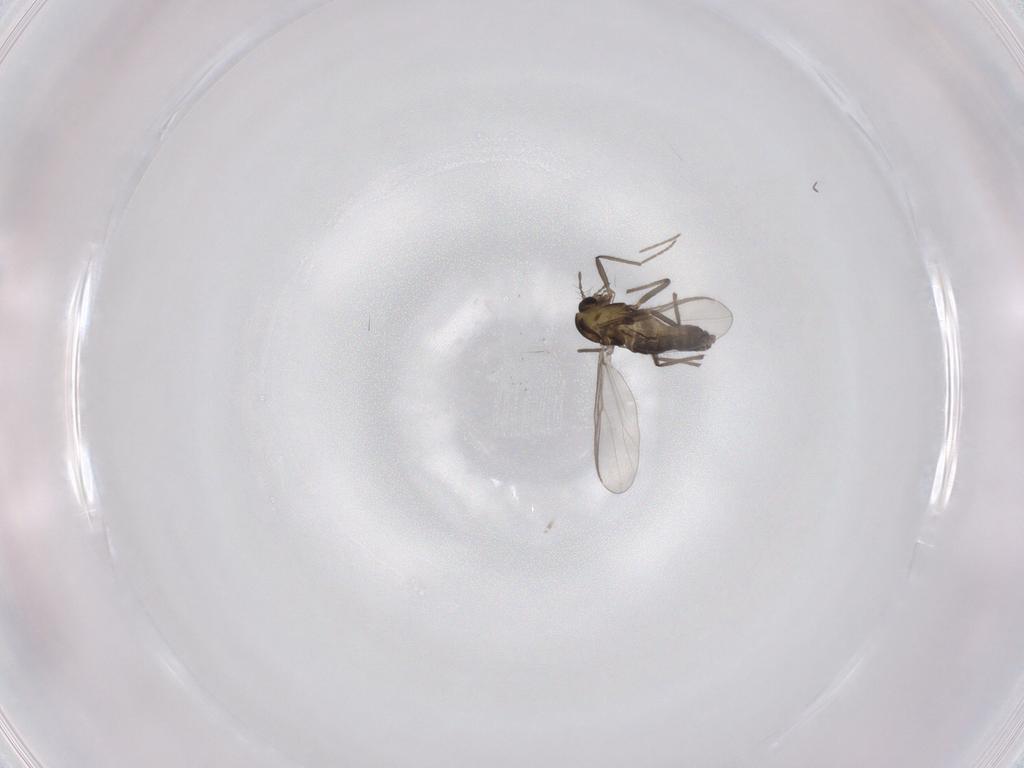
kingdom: Animalia
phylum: Arthropoda
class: Insecta
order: Diptera
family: Chironomidae
